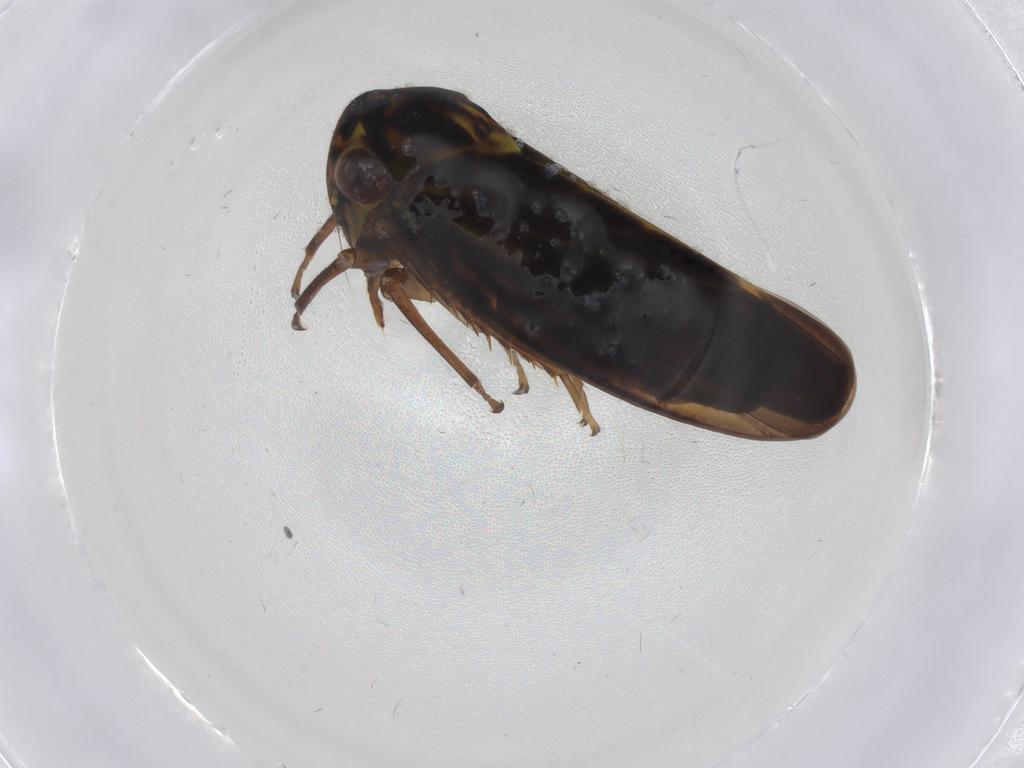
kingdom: Animalia
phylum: Arthropoda
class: Insecta
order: Hemiptera
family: Cicadellidae
